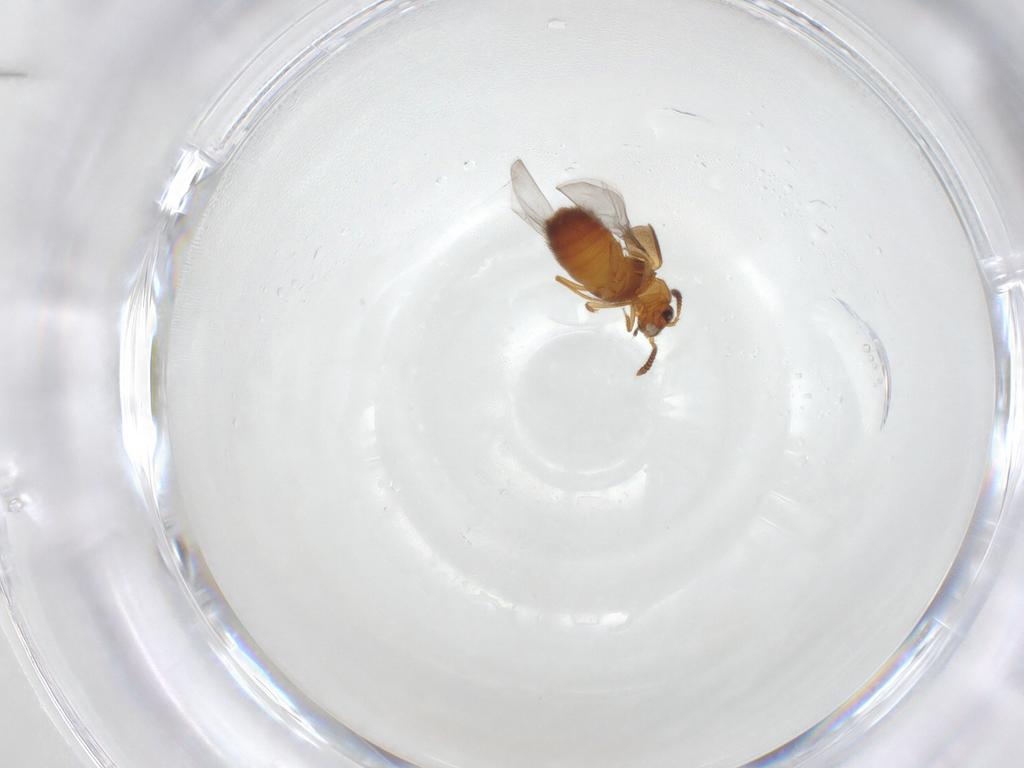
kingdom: Animalia
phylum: Arthropoda
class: Insecta
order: Coleoptera
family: Staphylinidae
